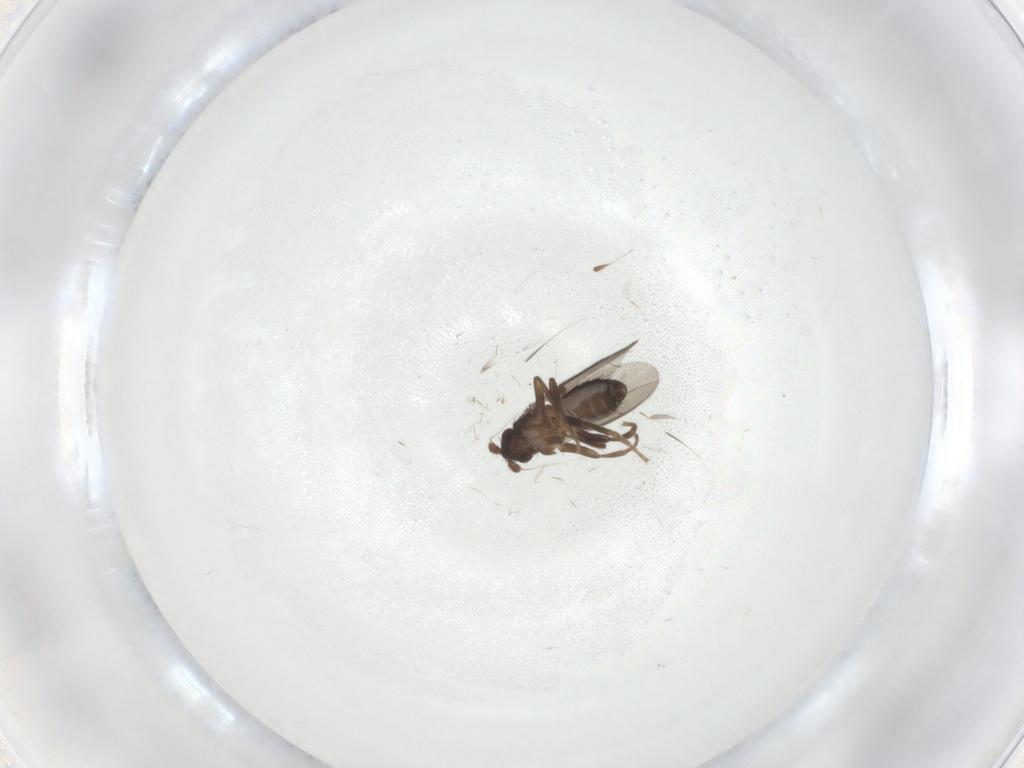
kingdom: Animalia
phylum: Arthropoda
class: Insecta
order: Diptera
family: Sphaeroceridae
